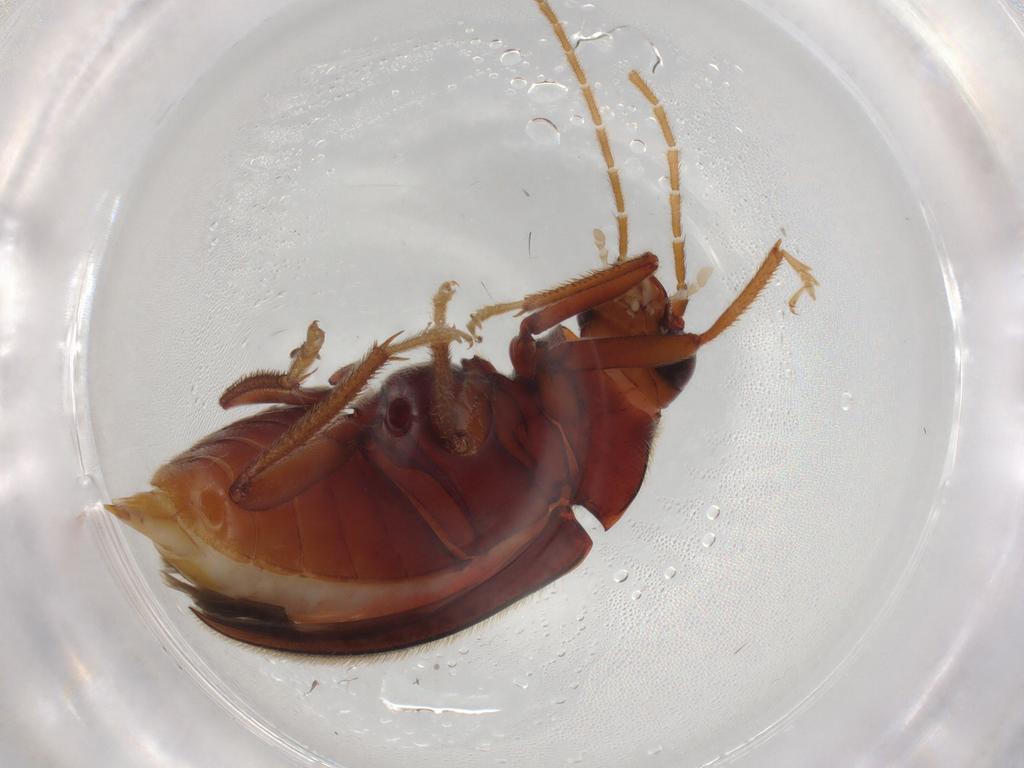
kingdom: Animalia
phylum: Arthropoda
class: Insecta
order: Coleoptera
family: Ptilodactylidae
